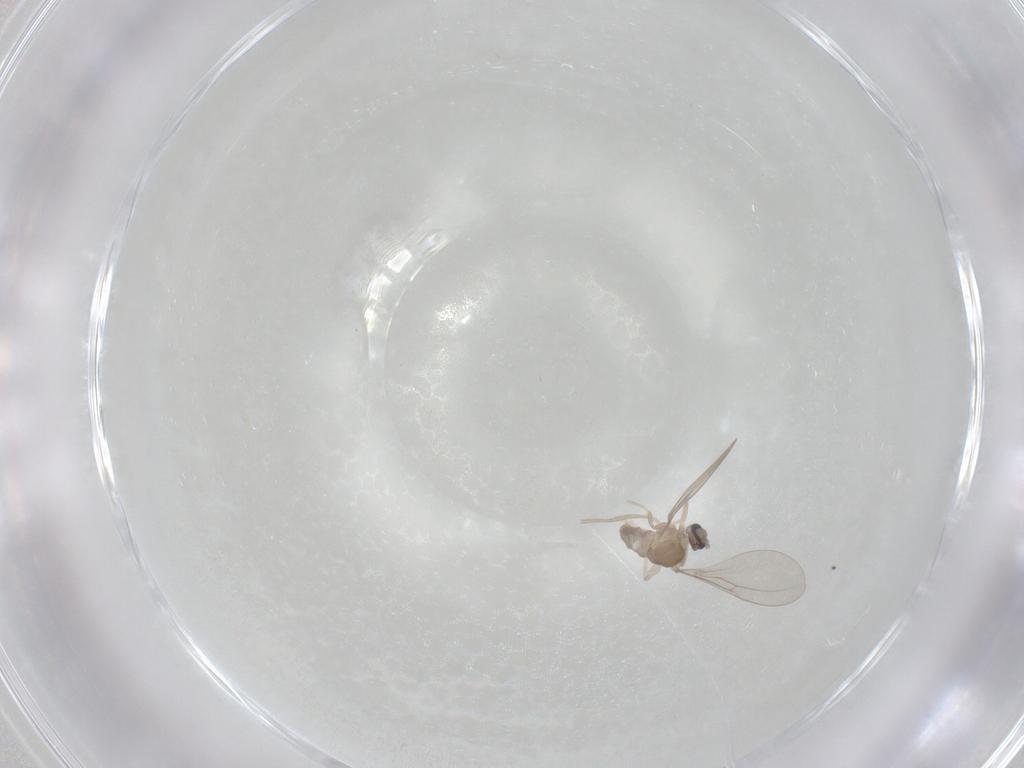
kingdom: Animalia
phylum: Arthropoda
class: Insecta
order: Diptera
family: Cecidomyiidae
